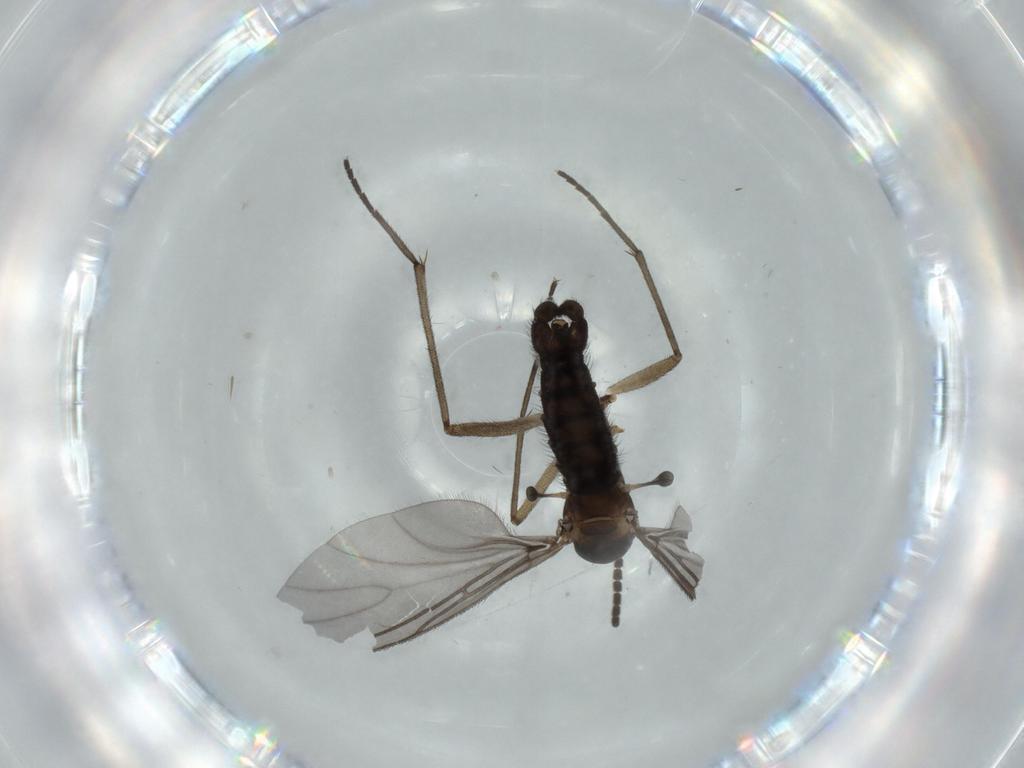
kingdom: Animalia
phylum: Arthropoda
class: Insecta
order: Diptera
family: Sciaridae
